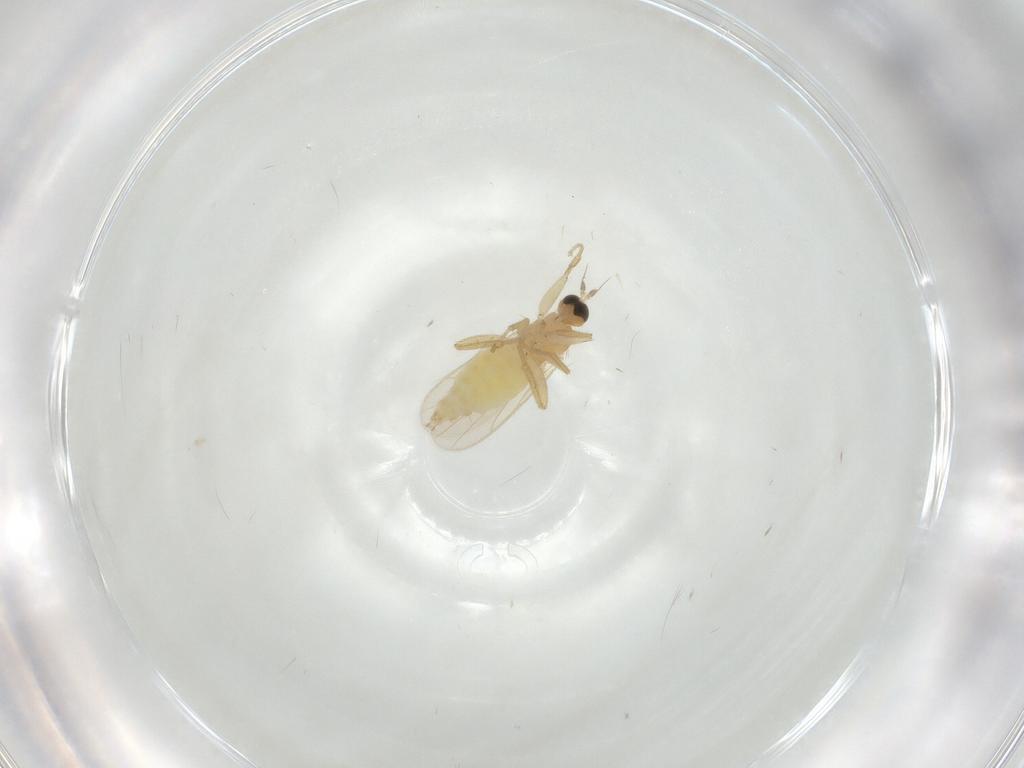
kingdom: Animalia
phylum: Arthropoda
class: Insecta
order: Diptera
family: Hybotidae
